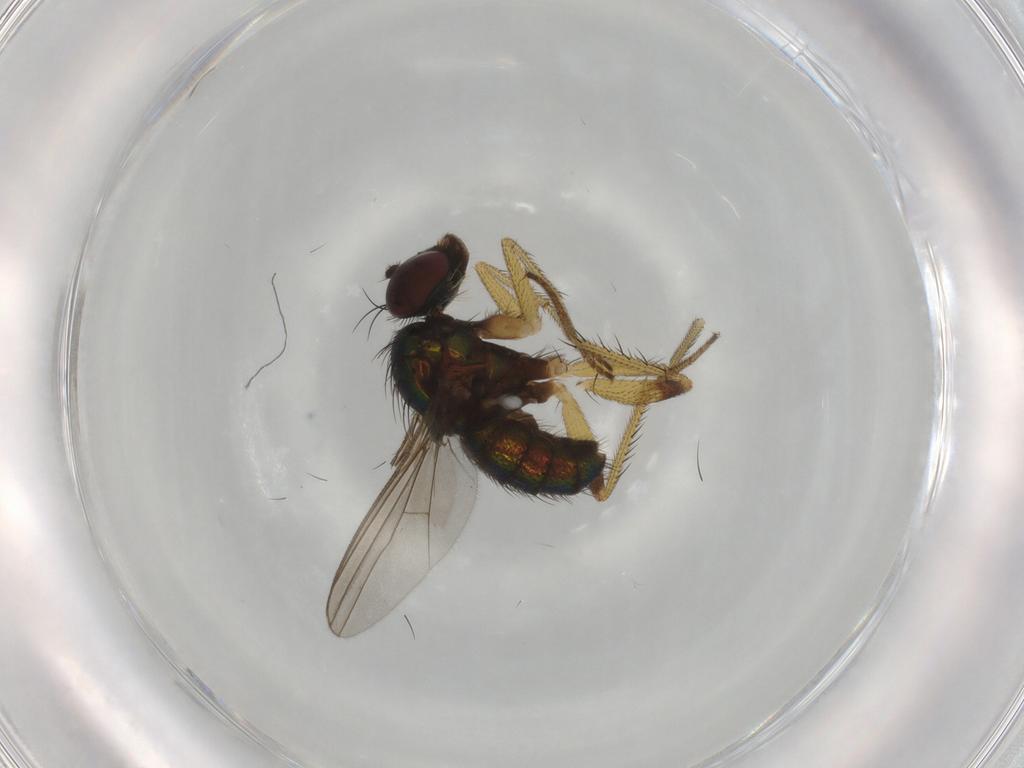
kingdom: Animalia
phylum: Arthropoda
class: Insecta
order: Diptera
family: Dolichopodidae
